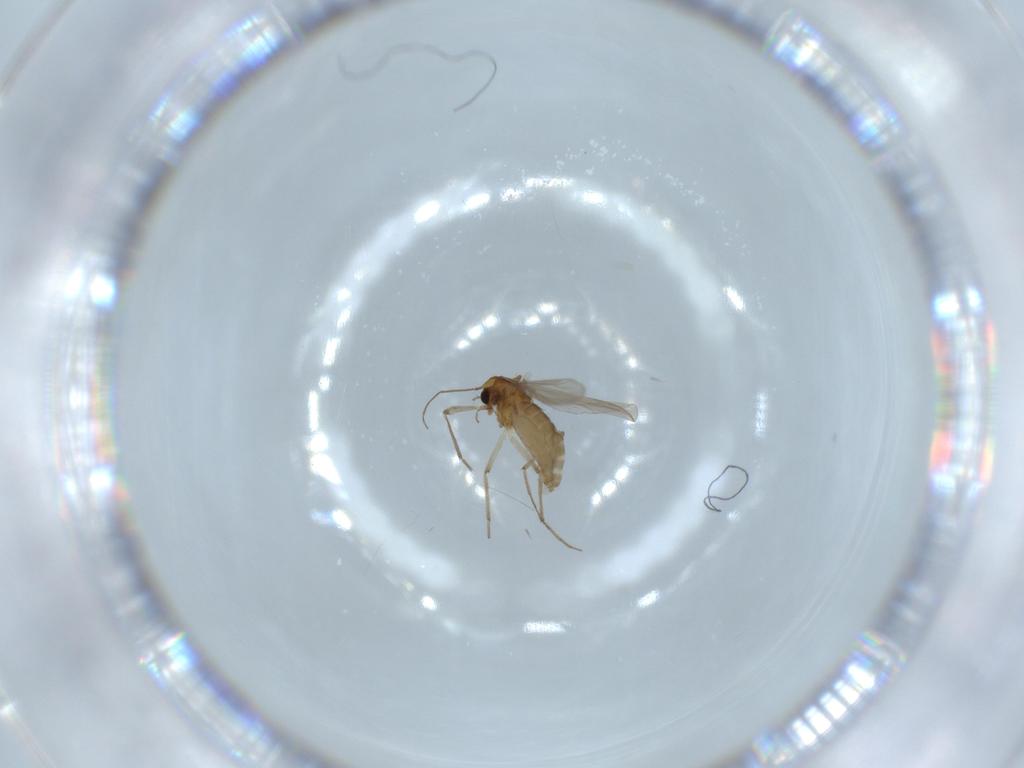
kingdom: Animalia
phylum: Arthropoda
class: Insecta
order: Diptera
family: Chironomidae
